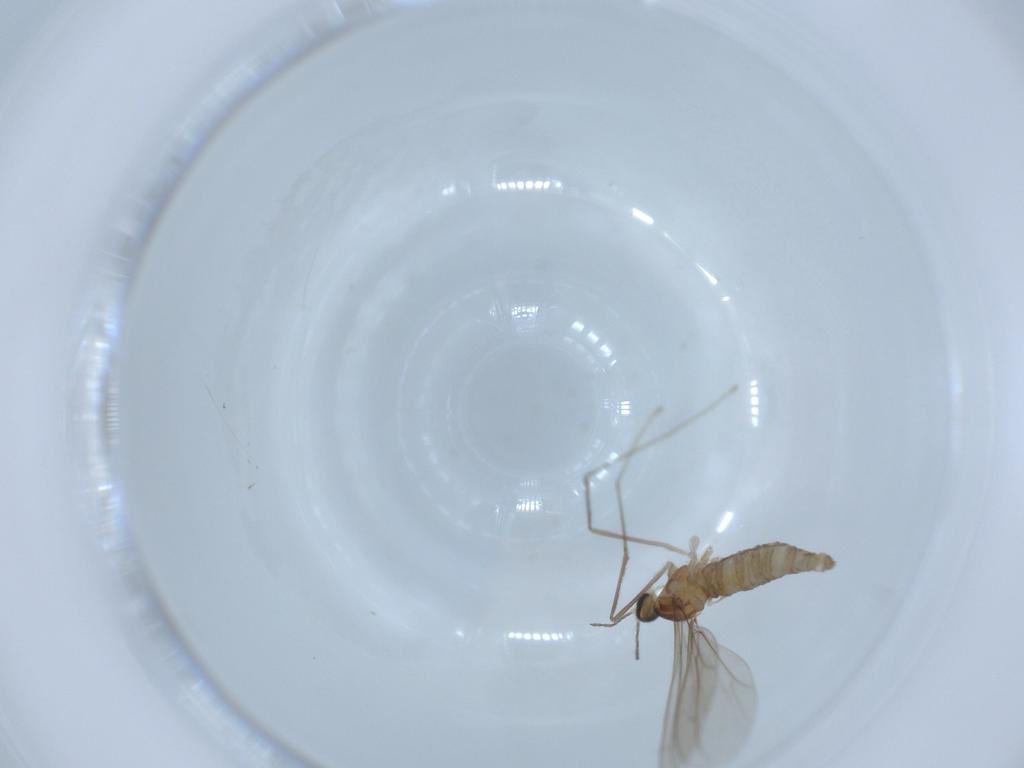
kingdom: Animalia
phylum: Arthropoda
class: Insecta
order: Diptera
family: Cecidomyiidae
